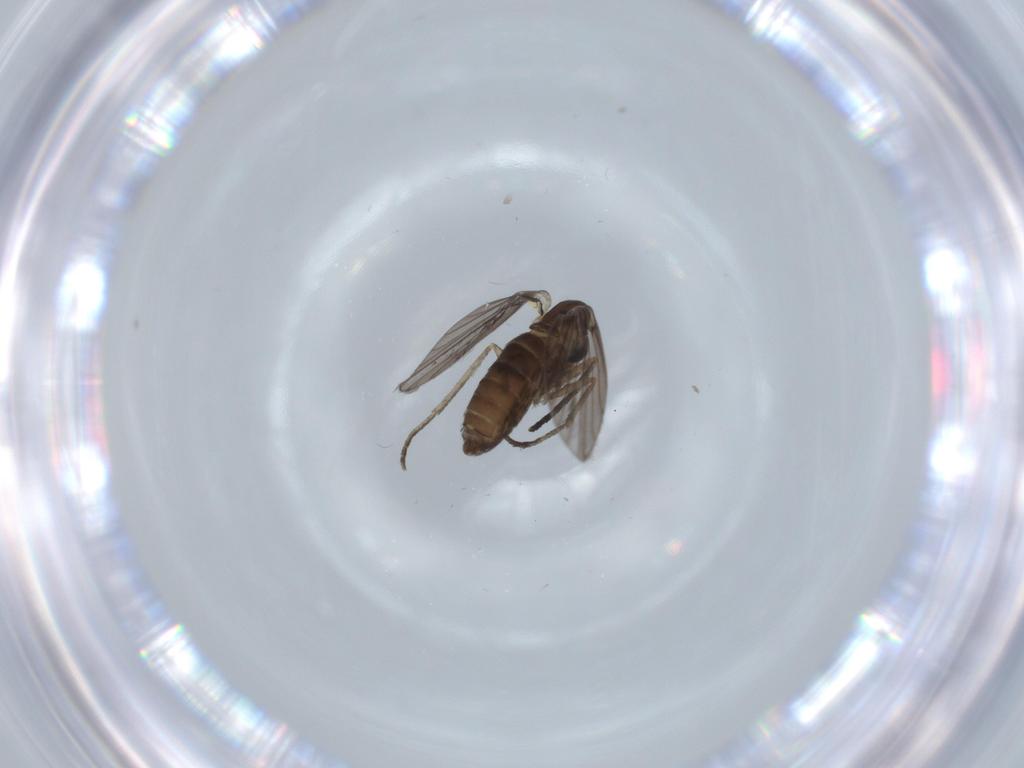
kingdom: Animalia
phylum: Arthropoda
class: Insecta
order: Diptera
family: Psychodidae
